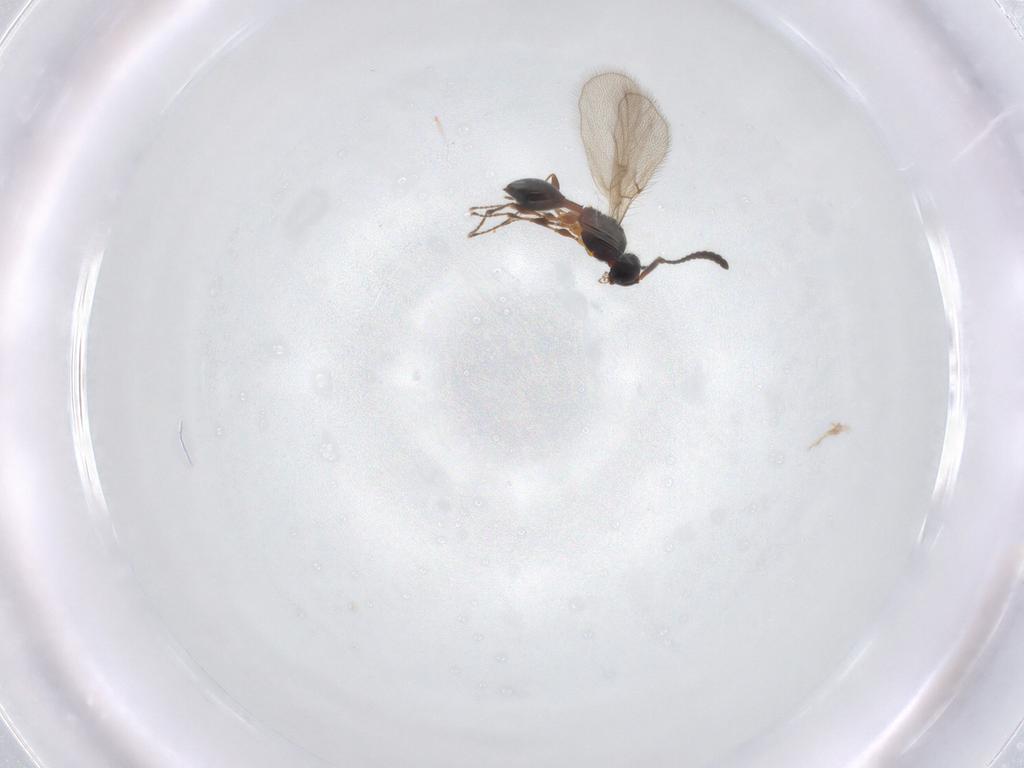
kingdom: Animalia
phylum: Arthropoda
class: Insecta
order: Hymenoptera
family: Diapriidae
